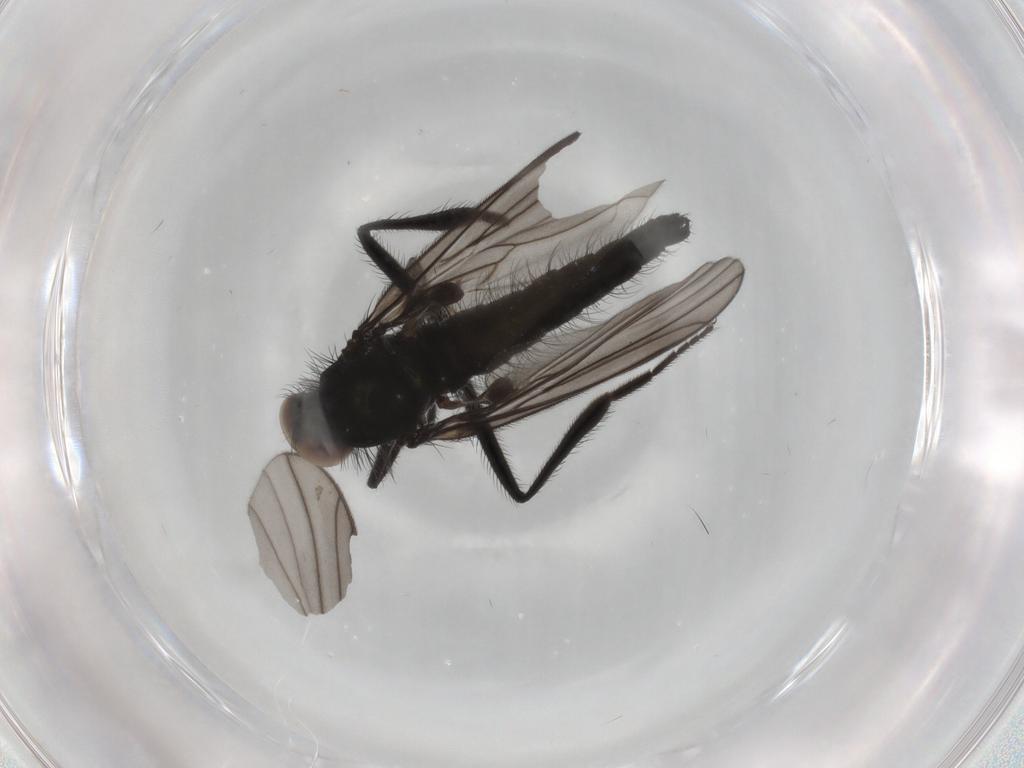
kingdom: Animalia
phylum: Arthropoda
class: Insecta
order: Diptera
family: Hybotidae
